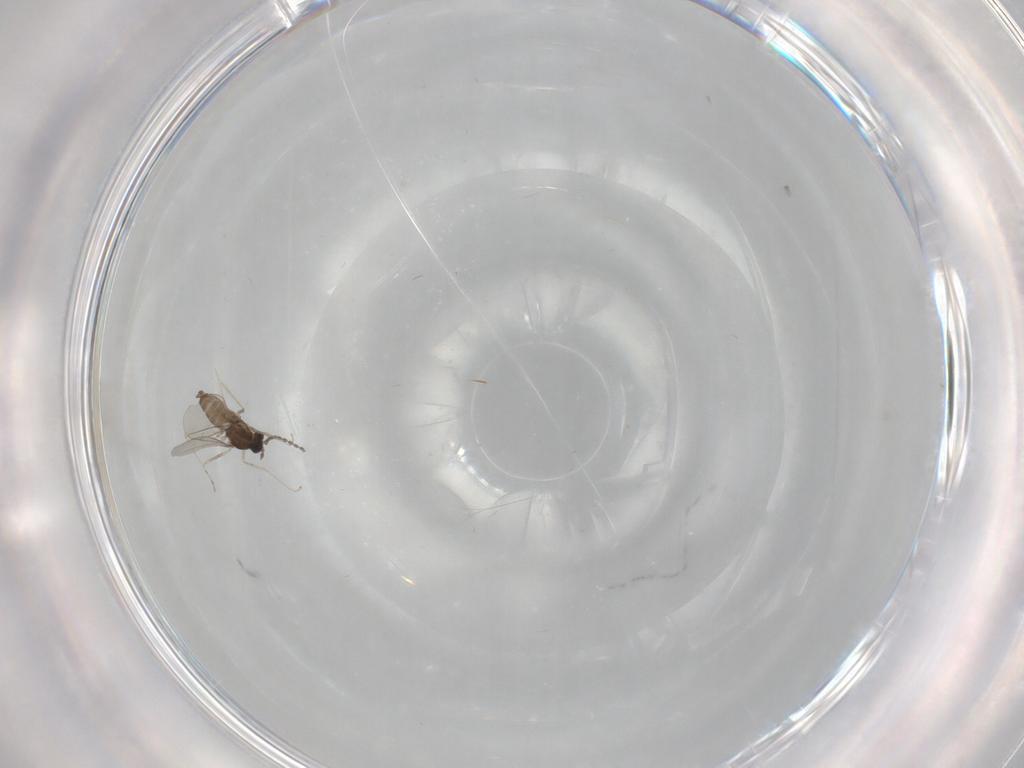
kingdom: Animalia
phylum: Arthropoda
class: Insecta
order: Diptera
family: Cecidomyiidae
